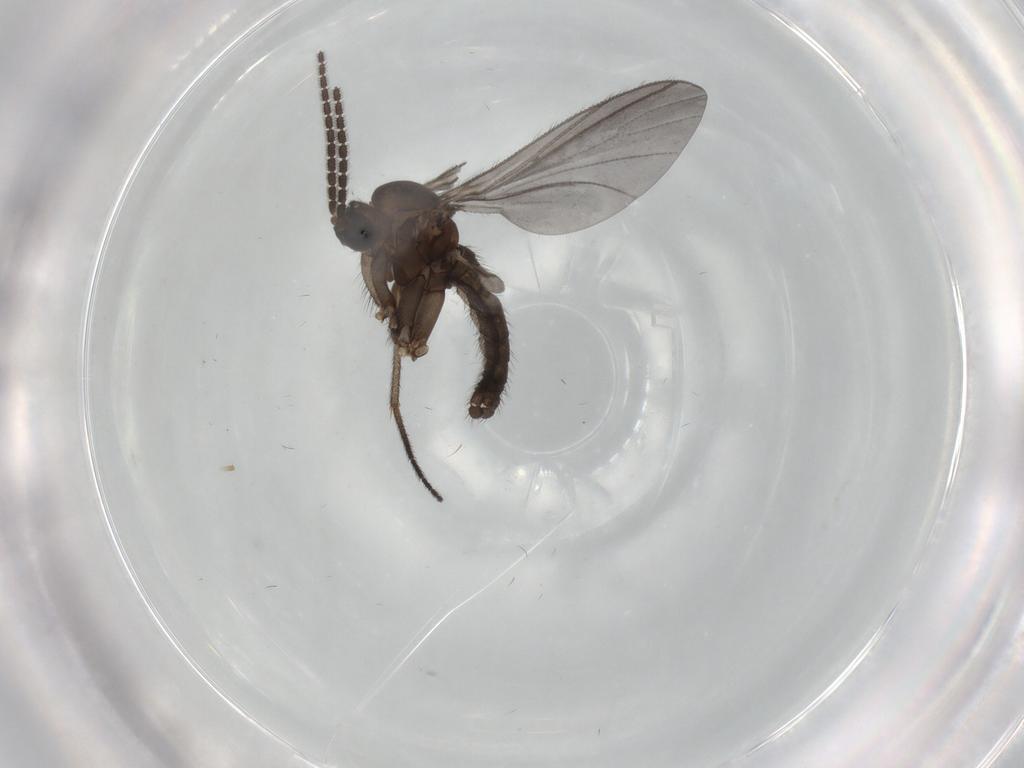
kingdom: Animalia
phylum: Arthropoda
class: Insecta
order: Diptera
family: Sciaridae
